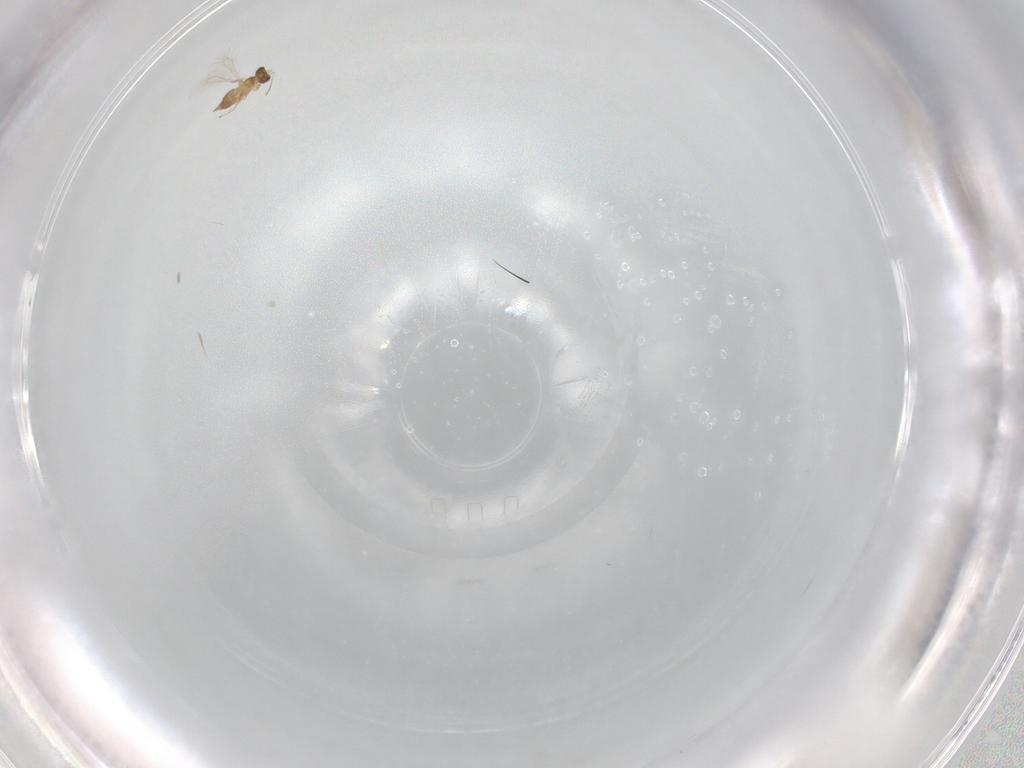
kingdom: Animalia
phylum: Arthropoda
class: Insecta
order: Hymenoptera
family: Mymaridae
